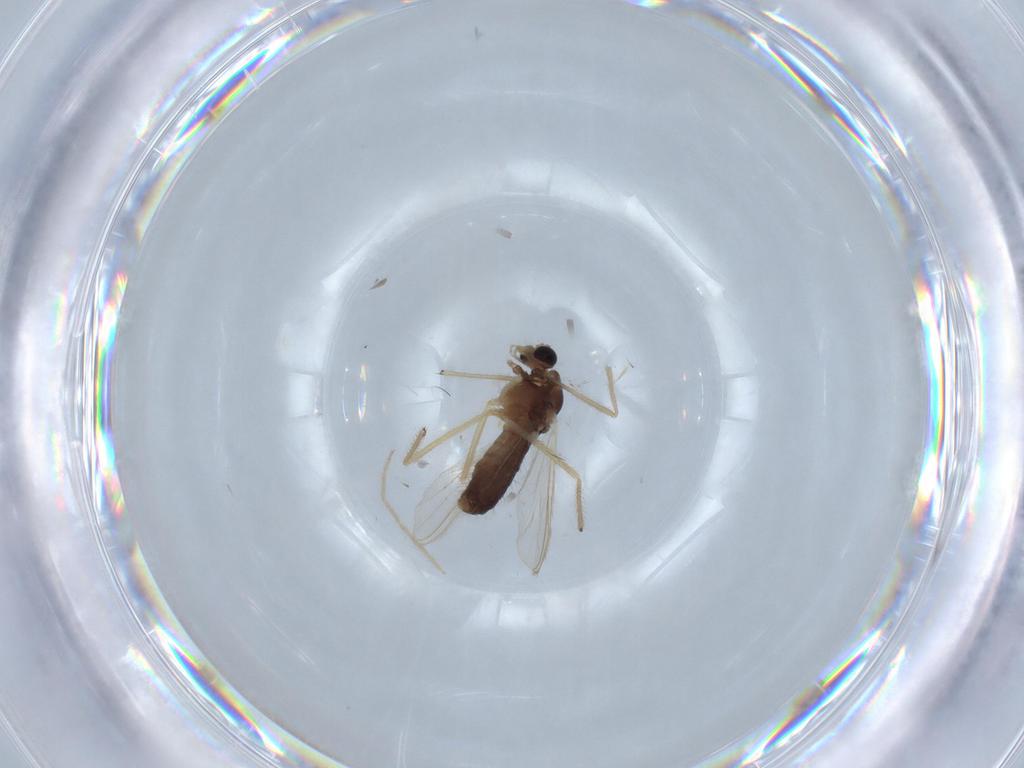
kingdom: Animalia
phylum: Arthropoda
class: Insecta
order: Diptera
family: Chironomidae
